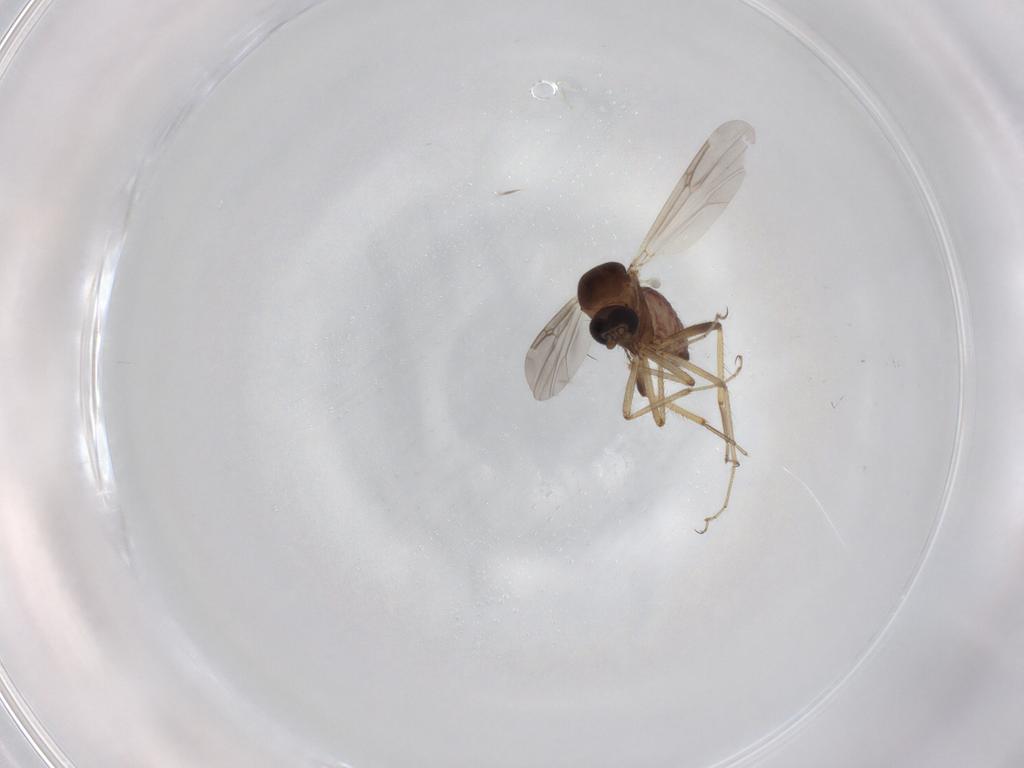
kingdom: Animalia
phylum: Arthropoda
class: Insecta
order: Diptera
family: Ceratopogonidae
